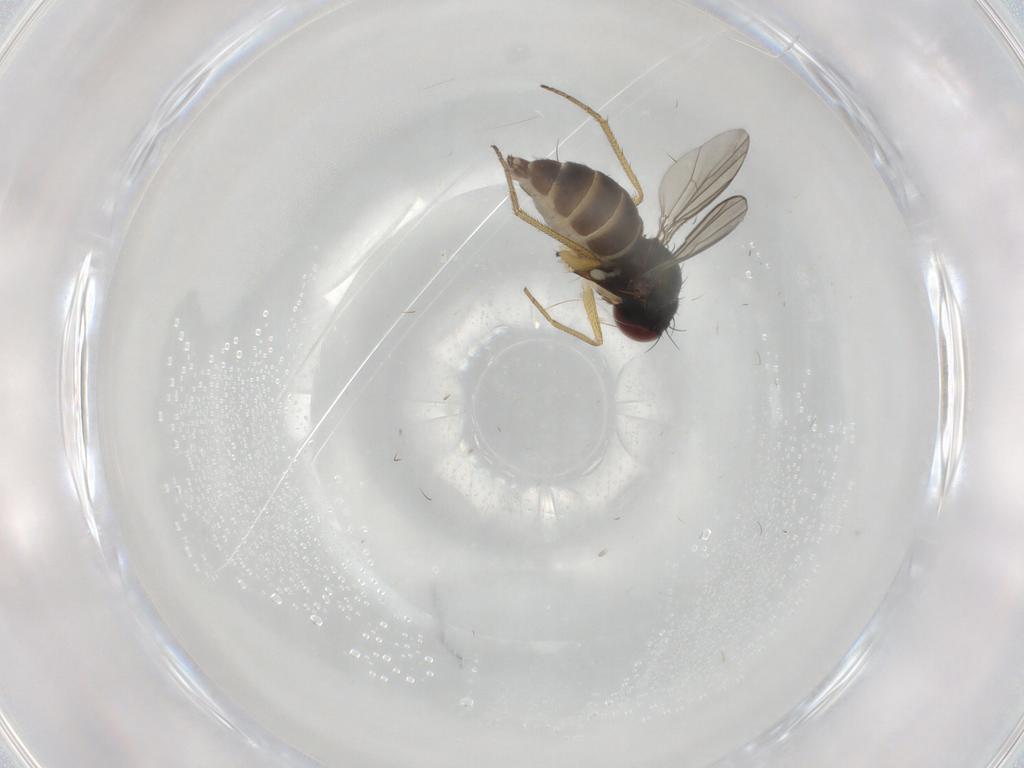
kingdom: Animalia
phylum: Arthropoda
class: Insecta
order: Diptera
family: Dolichopodidae
